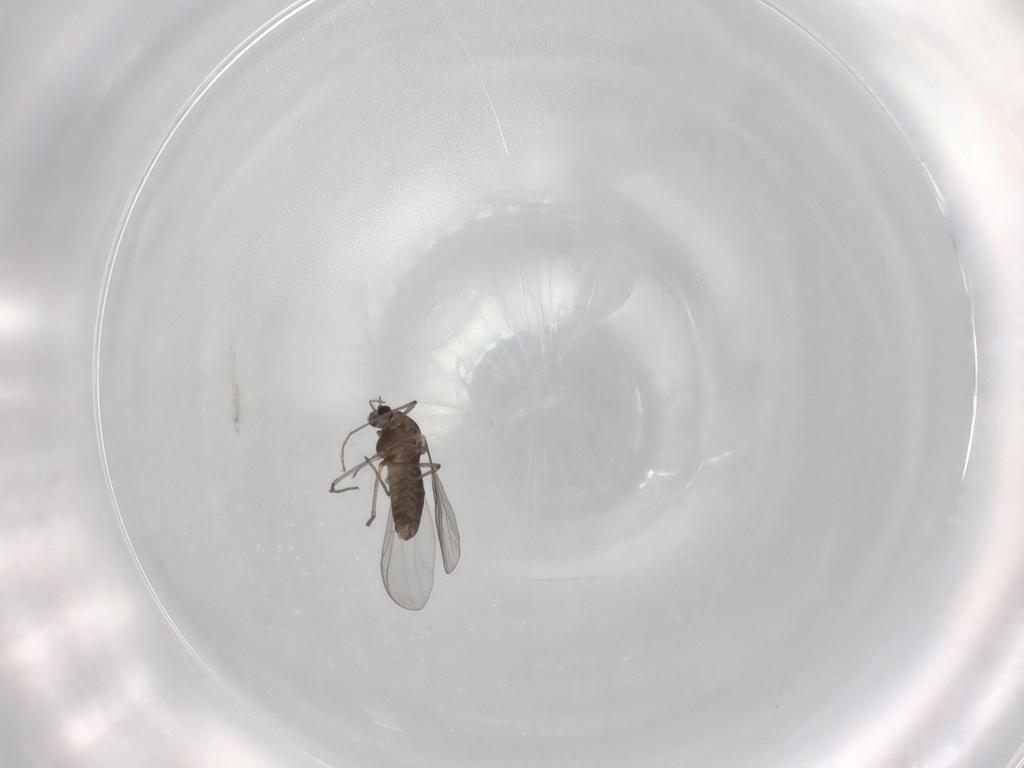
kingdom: Animalia
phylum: Arthropoda
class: Insecta
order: Diptera
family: Chironomidae
